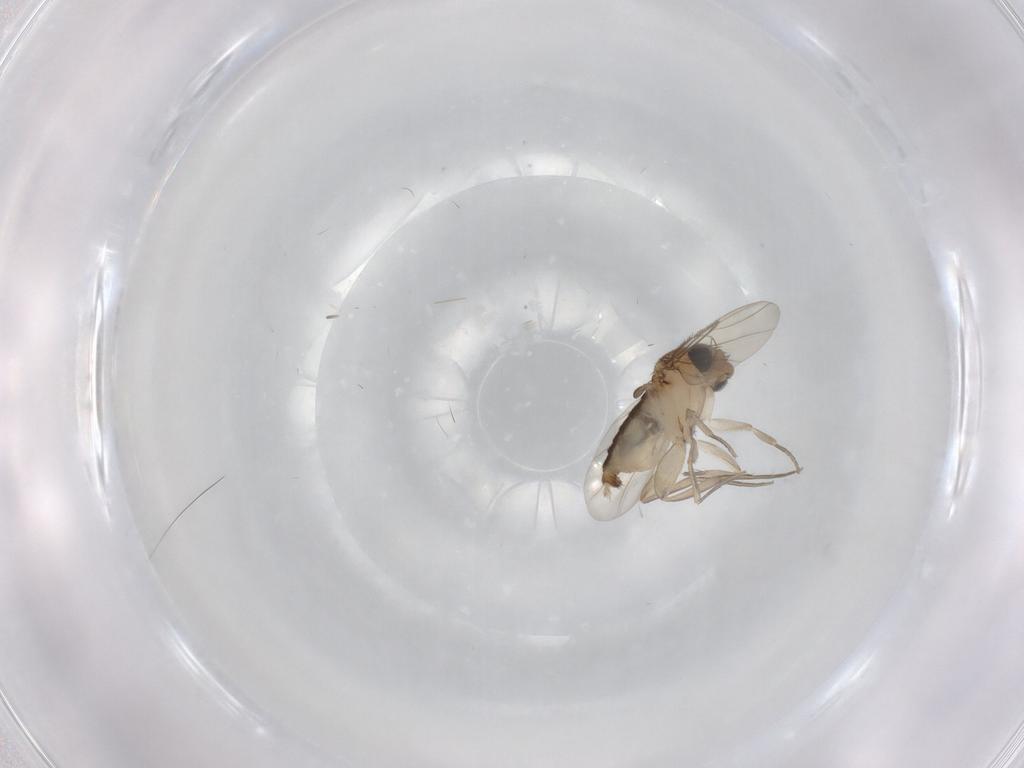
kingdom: Animalia
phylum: Arthropoda
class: Insecta
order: Diptera
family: Phoridae
